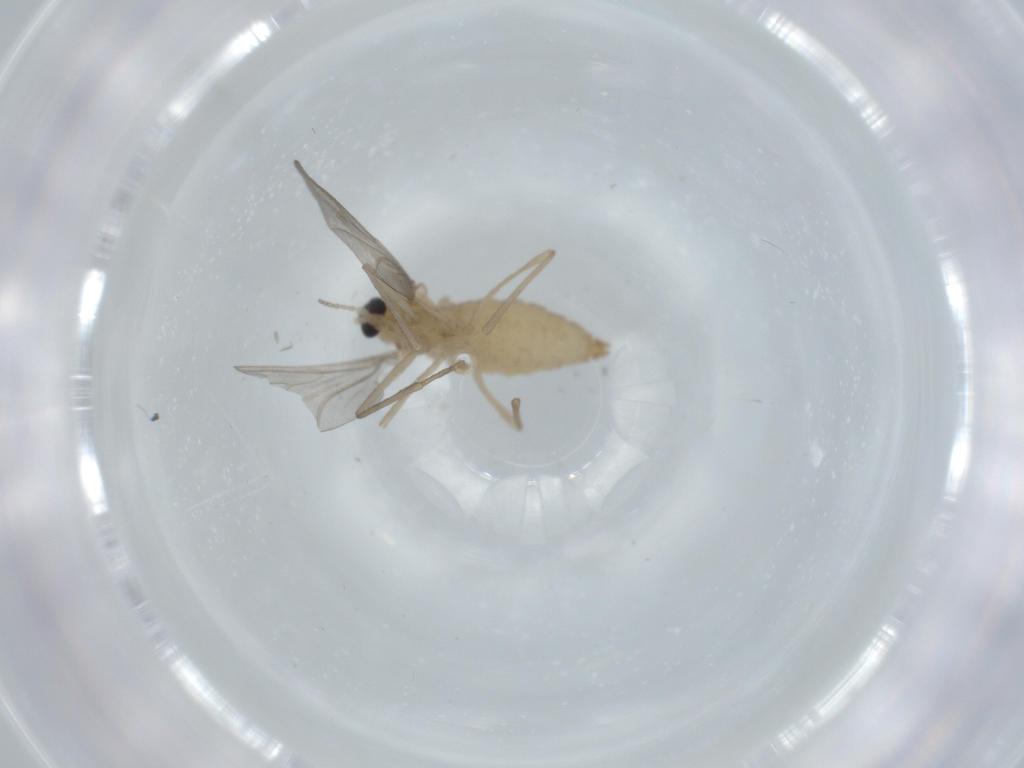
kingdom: Animalia
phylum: Arthropoda
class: Insecta
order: Diptera
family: Cecidomyiidae
